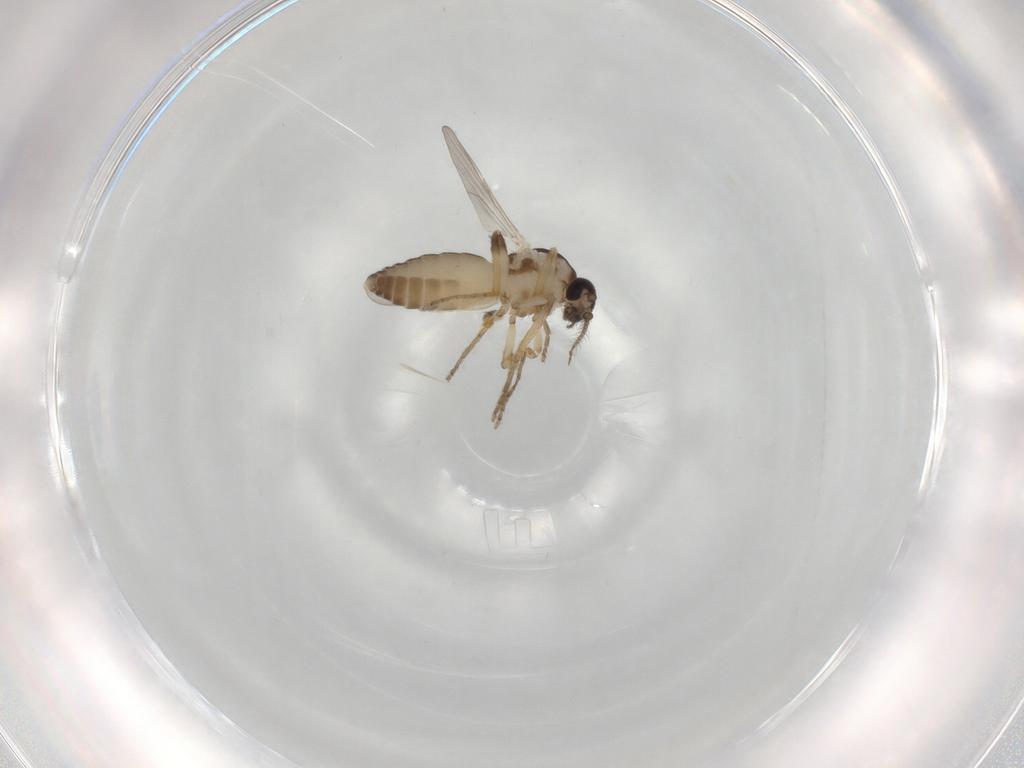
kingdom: Animalia
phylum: Arthropoda
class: Insecta
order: Diptera
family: Ceratopogonidae
